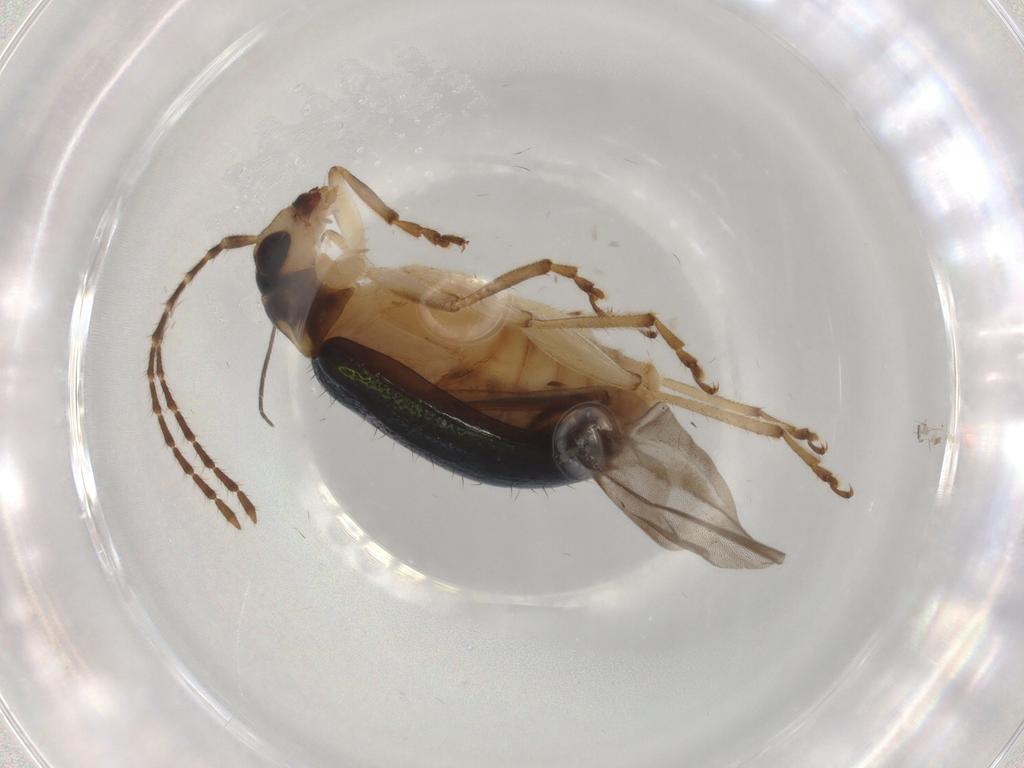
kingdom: Animalia
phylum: Arthropoda
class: Insecta
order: Coleoptera
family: Chrysomelidae
